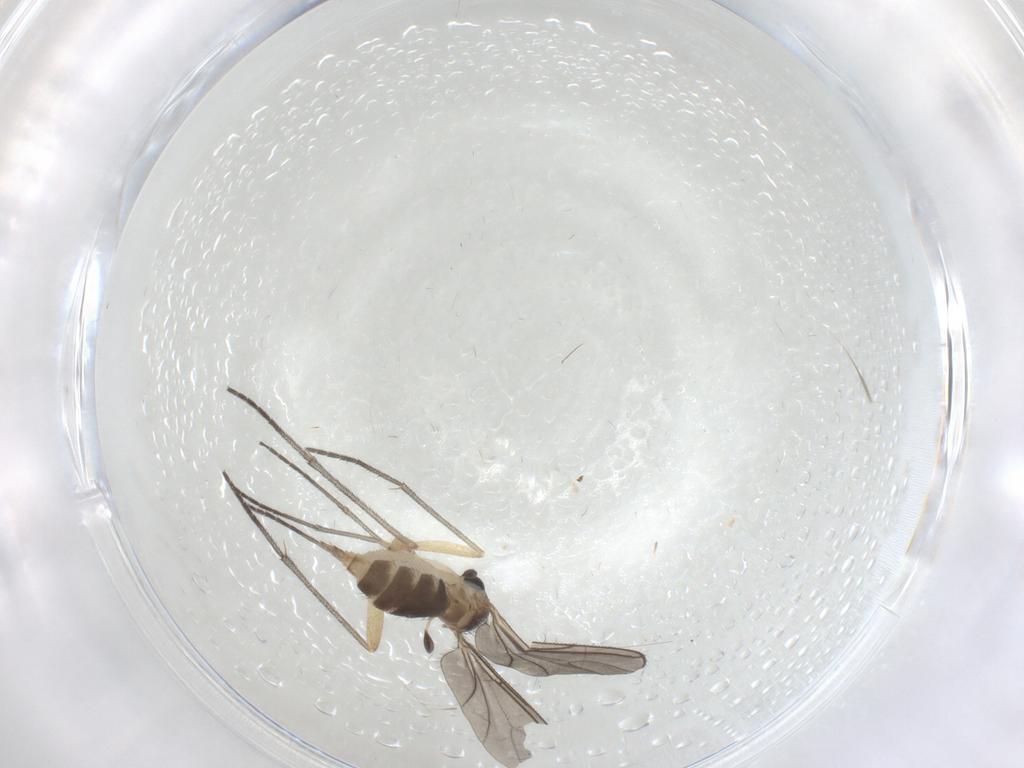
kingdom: Animalia
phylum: Arthropoda
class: Insecta
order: Diptera
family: Sciaridae
